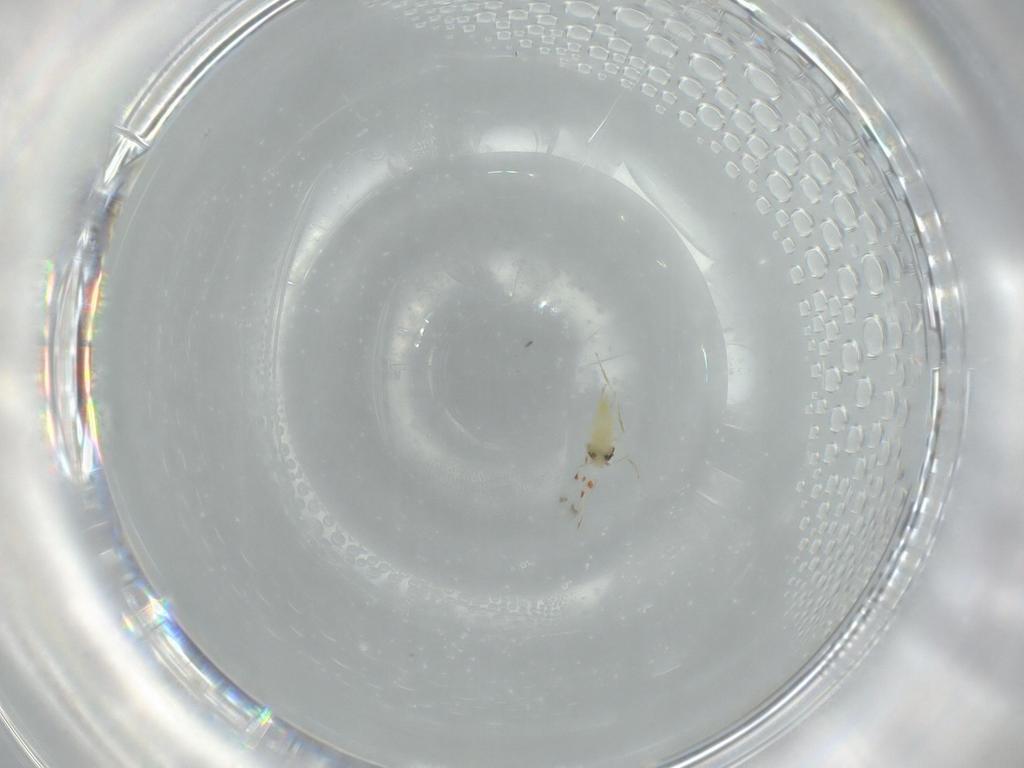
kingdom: Animalia
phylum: Arthropoda
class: Insecta
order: Hemiptera
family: Aleyrodidae
